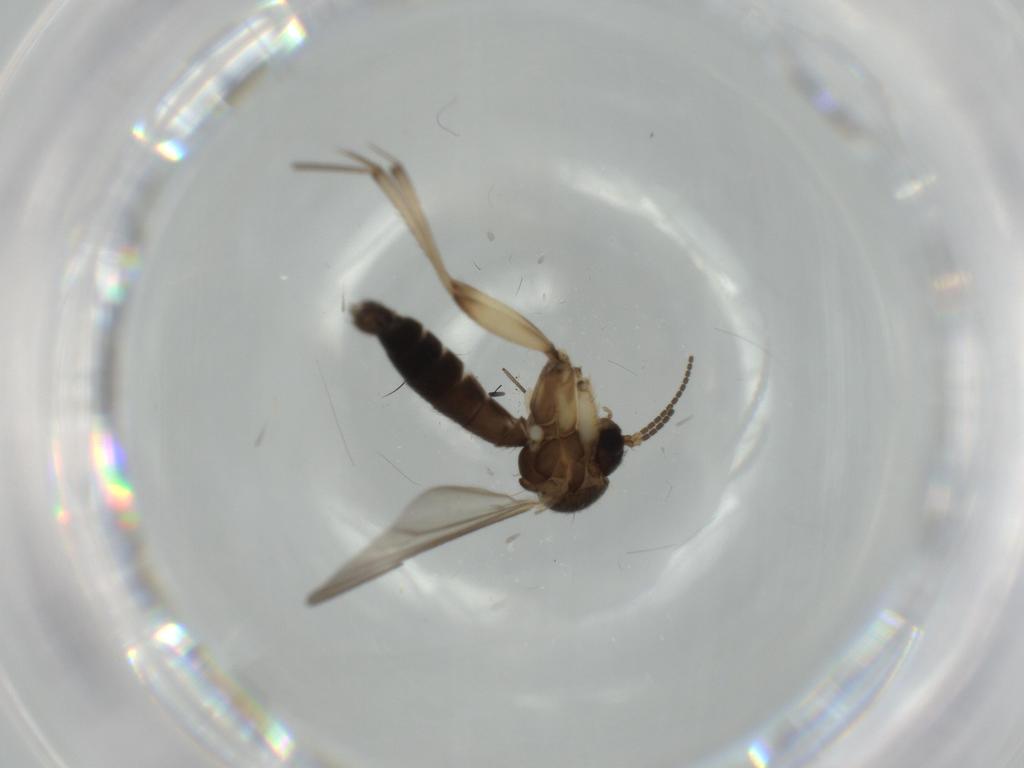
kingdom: Animalia
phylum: Arthropoda
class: Insecta
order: Diptera
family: Mycetophilidae
